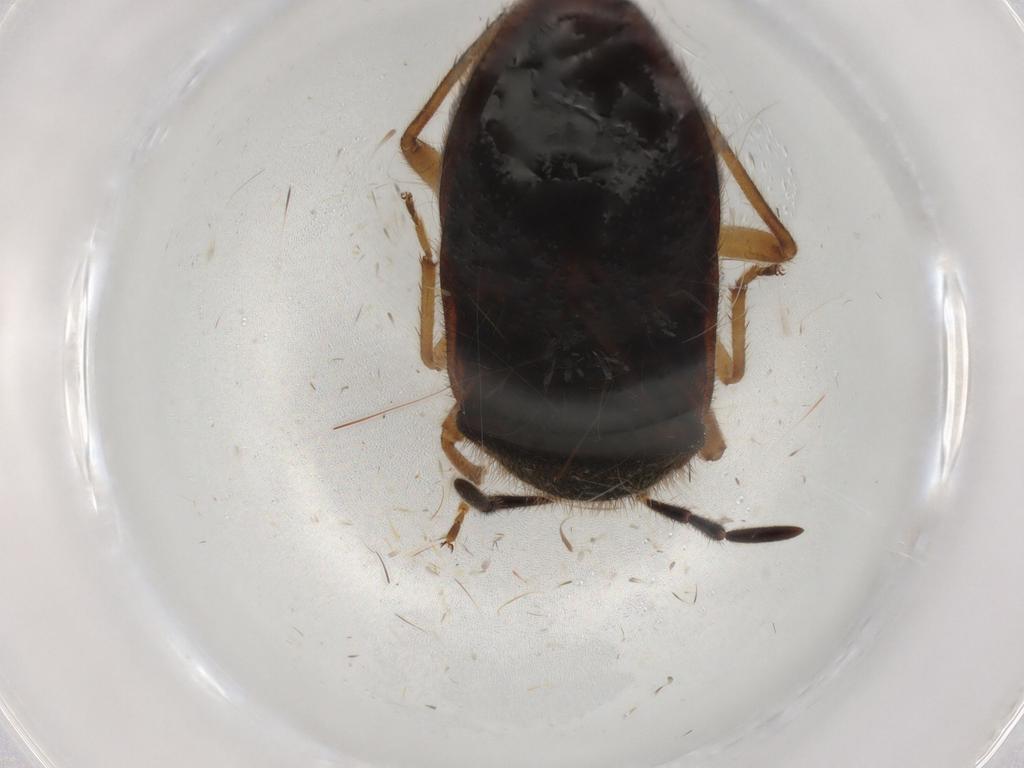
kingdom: Animalia
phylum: Arthropoda
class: Insecta
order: Hemiptera
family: Rhyparochromidae
